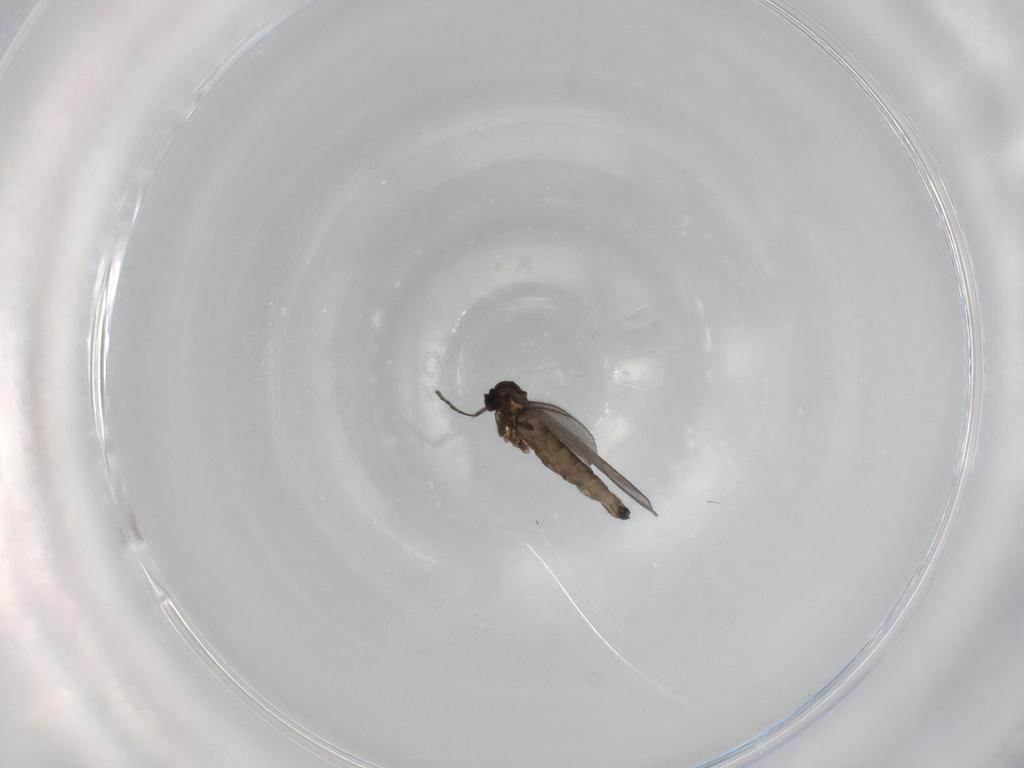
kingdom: Animalia
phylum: Arthropoda
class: Insecta
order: Diptera
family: Sciaridae
